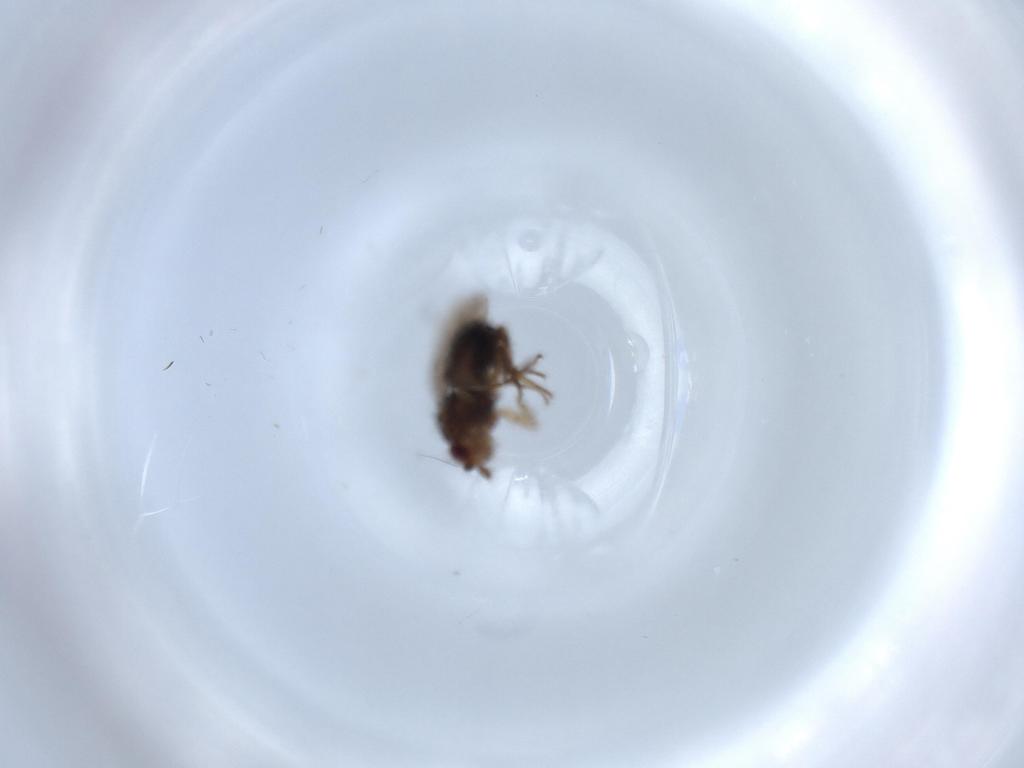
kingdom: Animalia
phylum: Arthropoda
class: Insecta
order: Diptera
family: Sphaeroceridae
